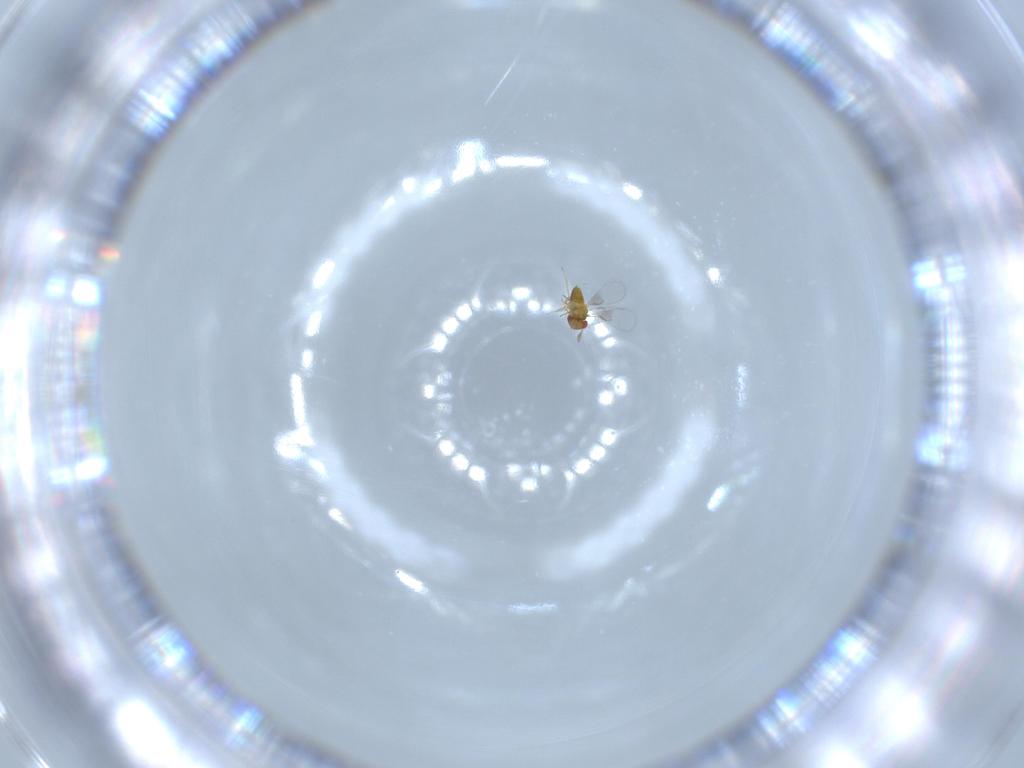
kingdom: Animalia
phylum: Arthropoda
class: Insecta
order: Hymenoptera
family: Trichogrammatidae
